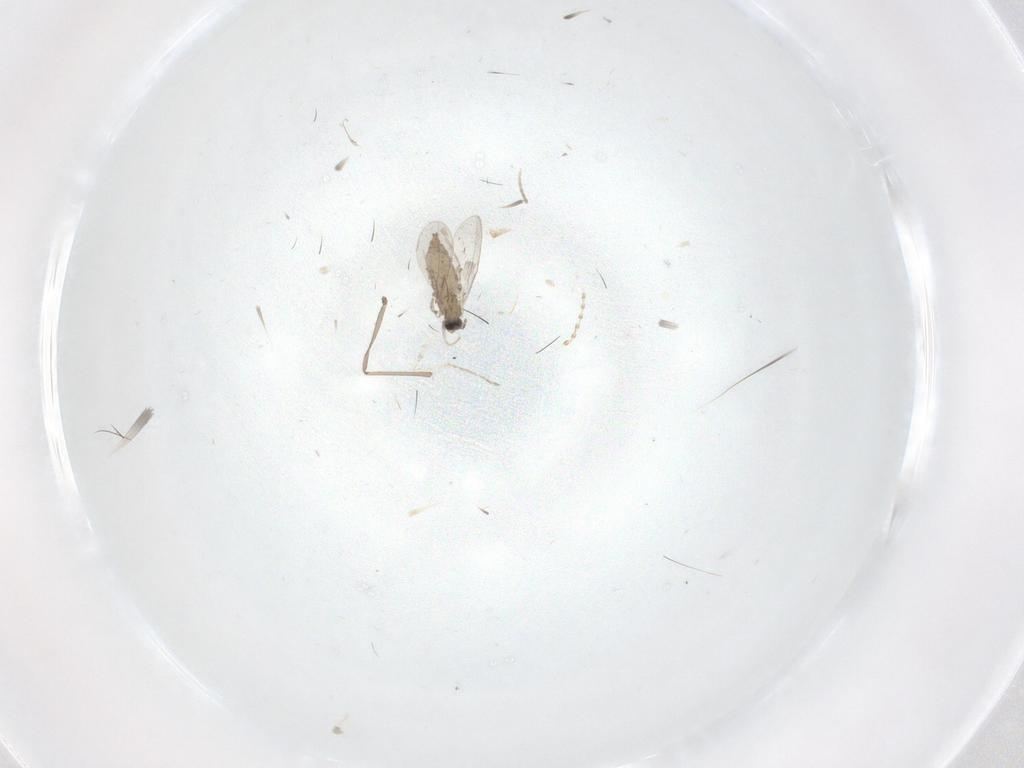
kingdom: Animalia
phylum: Arthropoda
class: Insecta
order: Diptera
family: Cecidomyiidae
